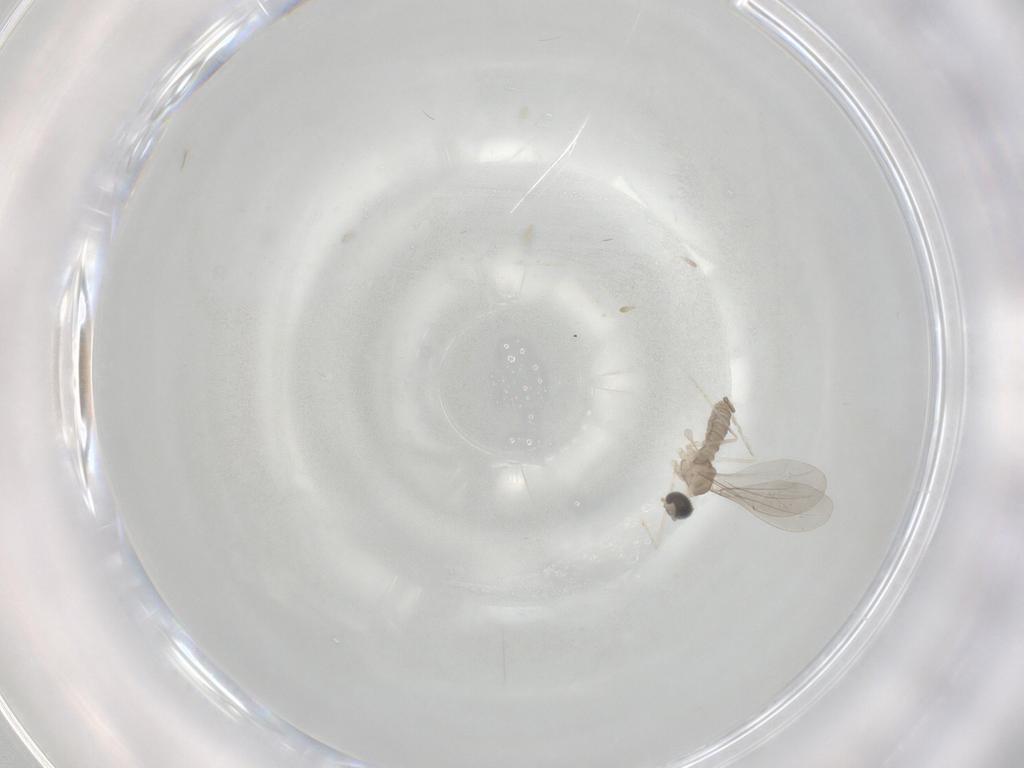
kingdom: Animalia
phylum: Arthropoda
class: Insecta
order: Diptera
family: Cecidomyiidae
